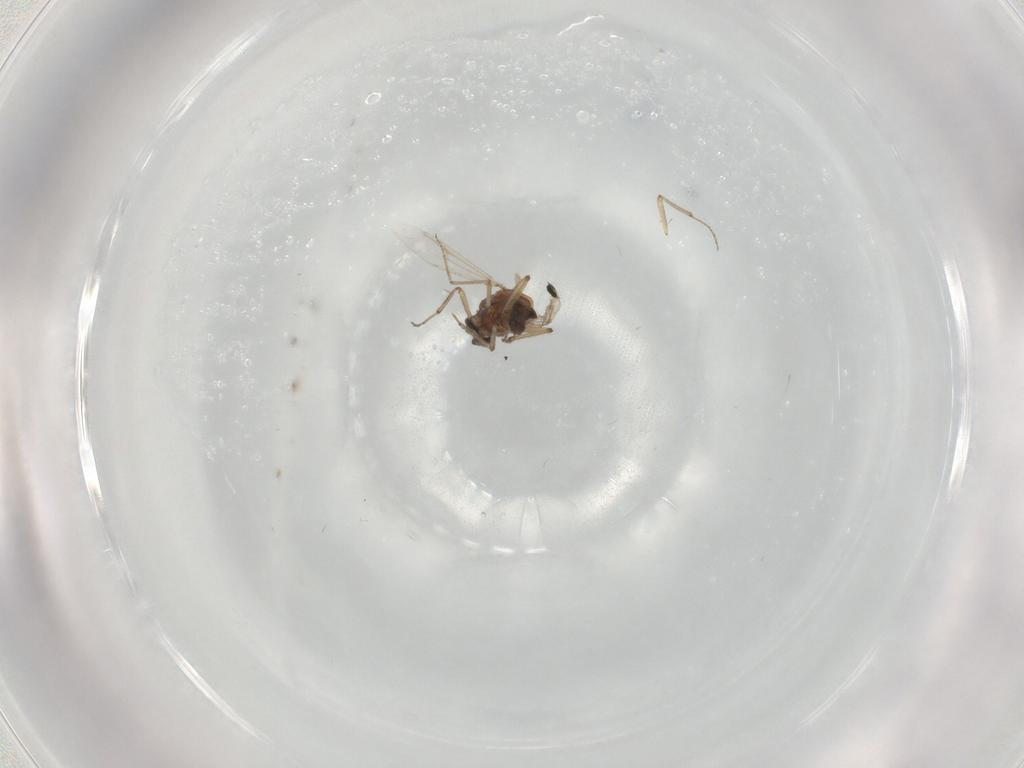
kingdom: Animalia
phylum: Arthropoda
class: Insecta
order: Diptera
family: Ceratopogonidae
